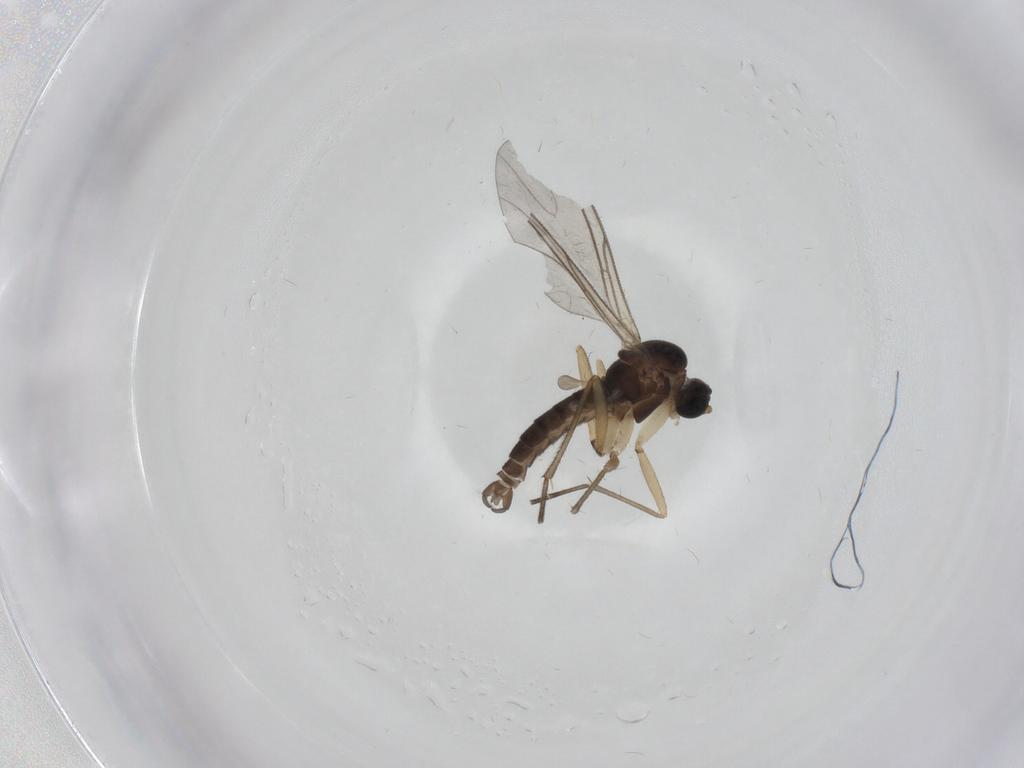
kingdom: Animalia
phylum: Arthropoda
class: Insecta
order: Diptera
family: Sciaridae
